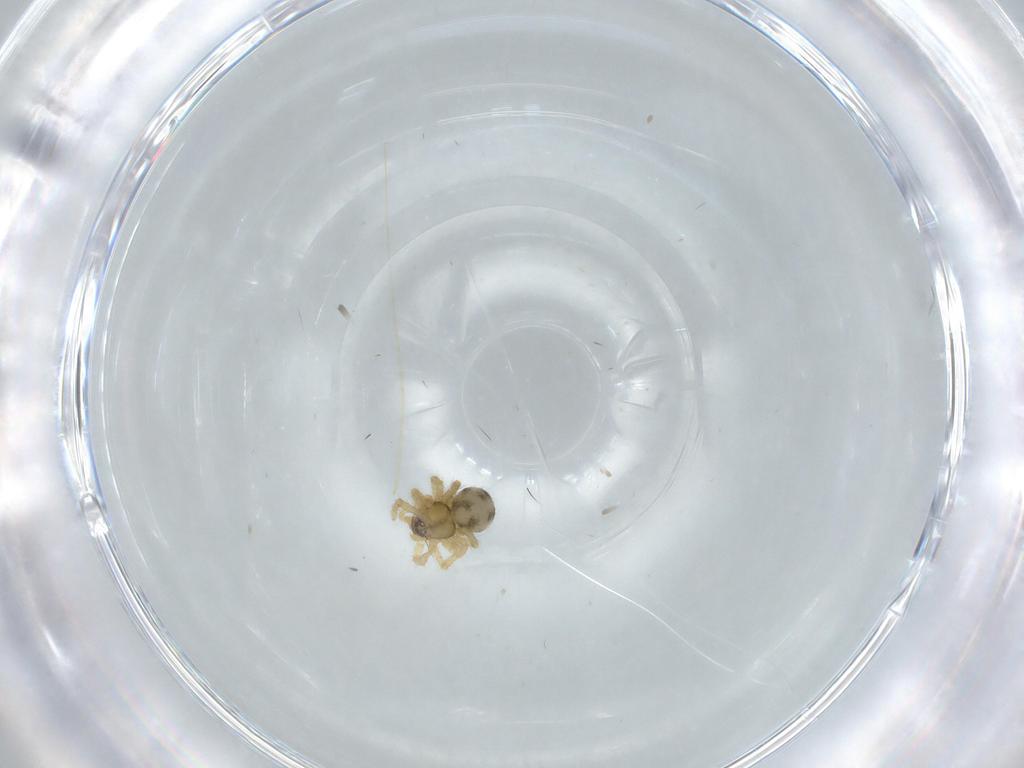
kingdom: Animalia
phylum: Arthropoda
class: Arachnida
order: Araneae
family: Theridiidae
